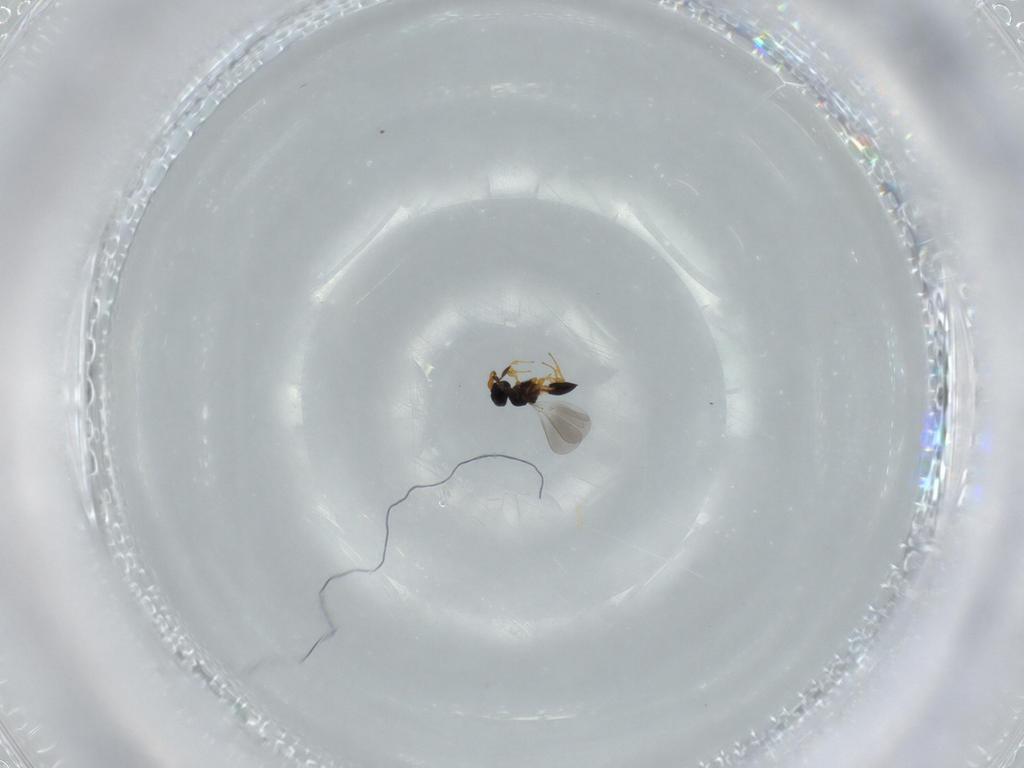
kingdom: Animalia
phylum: Arthropoda
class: Insecta
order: Hymenoptera
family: Platygastridae
